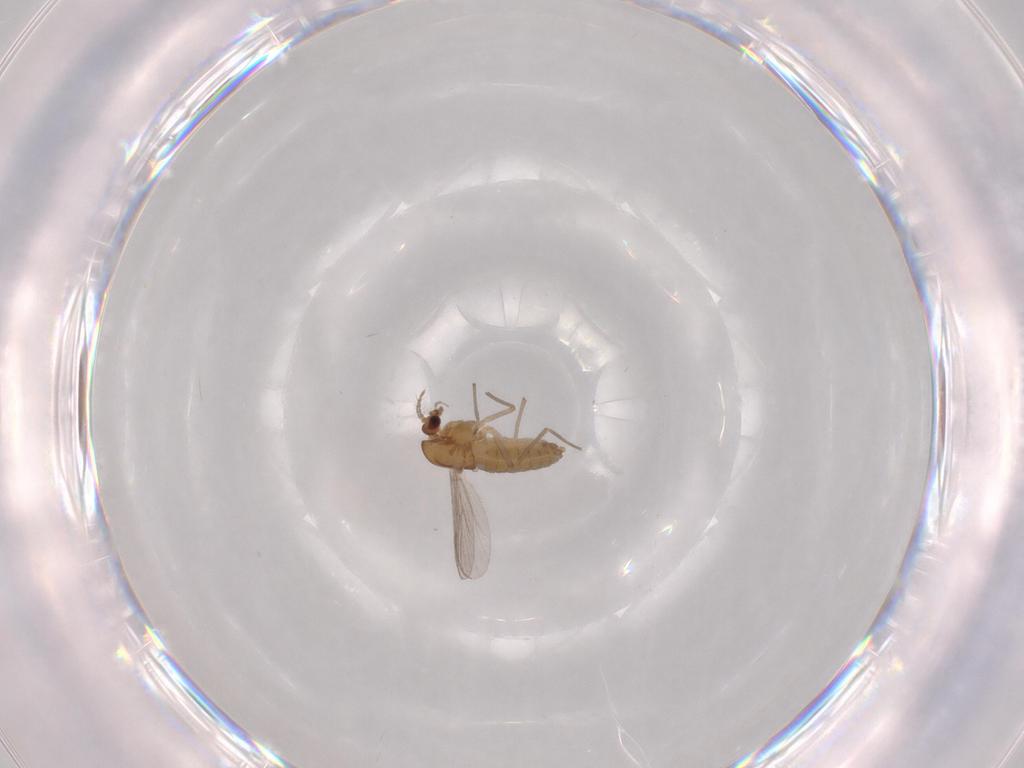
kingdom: Animalia
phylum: Arthropoda
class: Insecta
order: Diptera
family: Chironomidae
